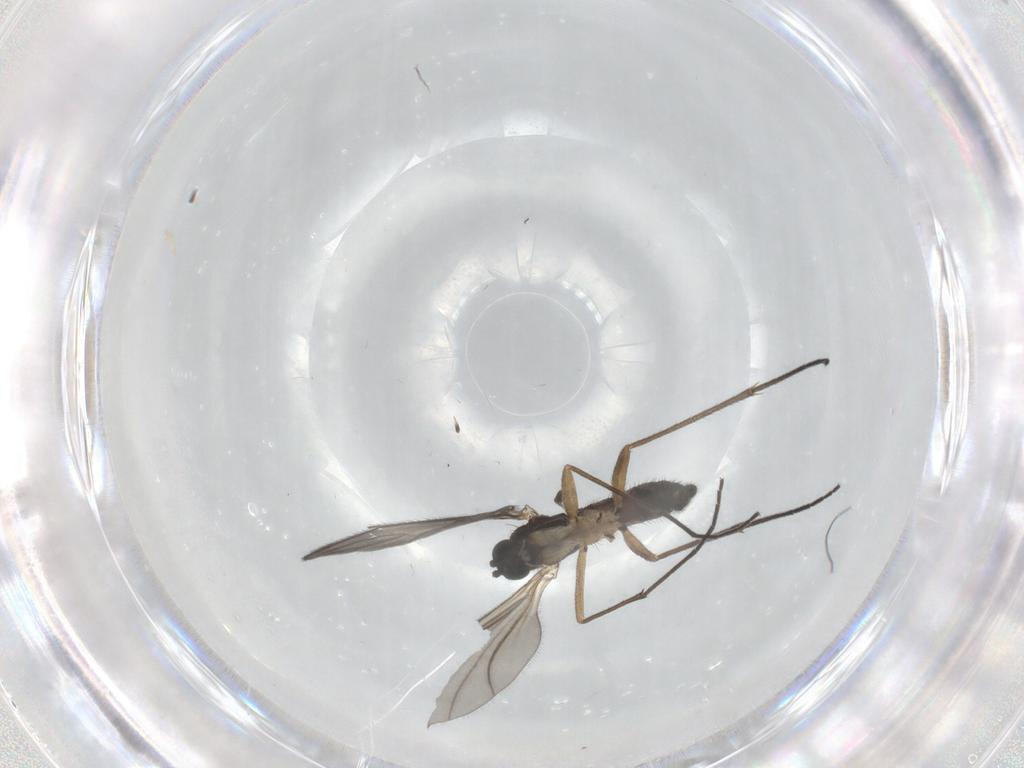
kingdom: Animalia
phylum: Arthropoda
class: Insecta
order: Diptera
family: Sciaridae
